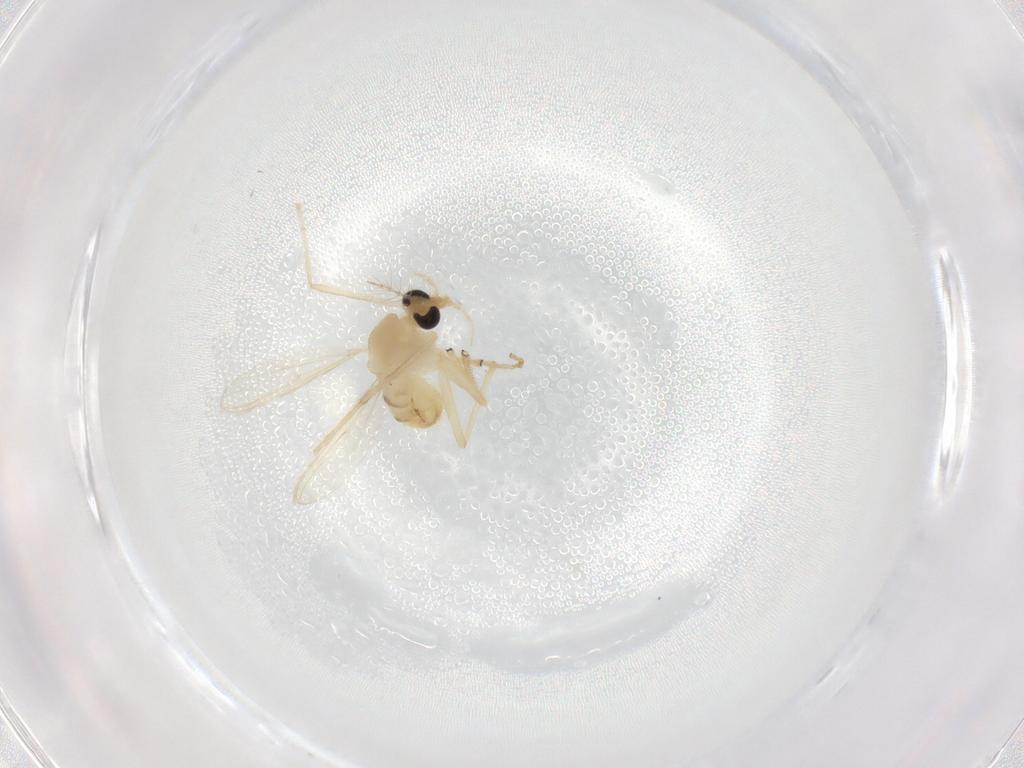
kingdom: Animalia
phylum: Arthropoda
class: Insecta
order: Diptera
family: Chironomidae
